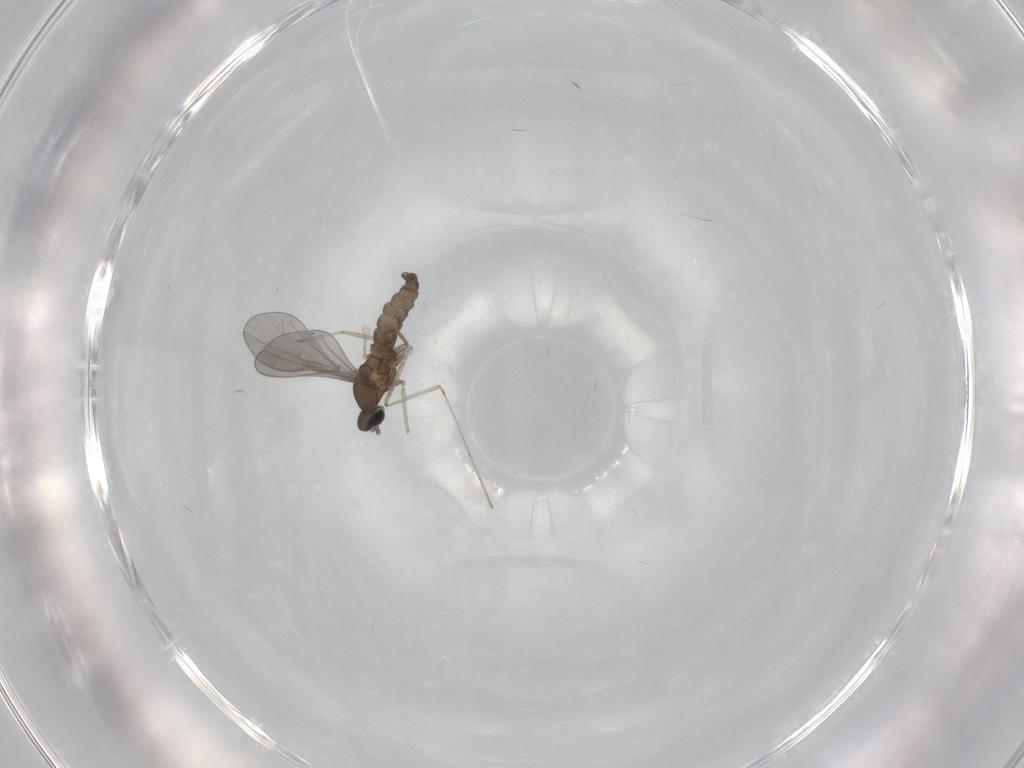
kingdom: Animalia
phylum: Arthropoda
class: Insecta
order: Diptera
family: Cecidomyiidae
